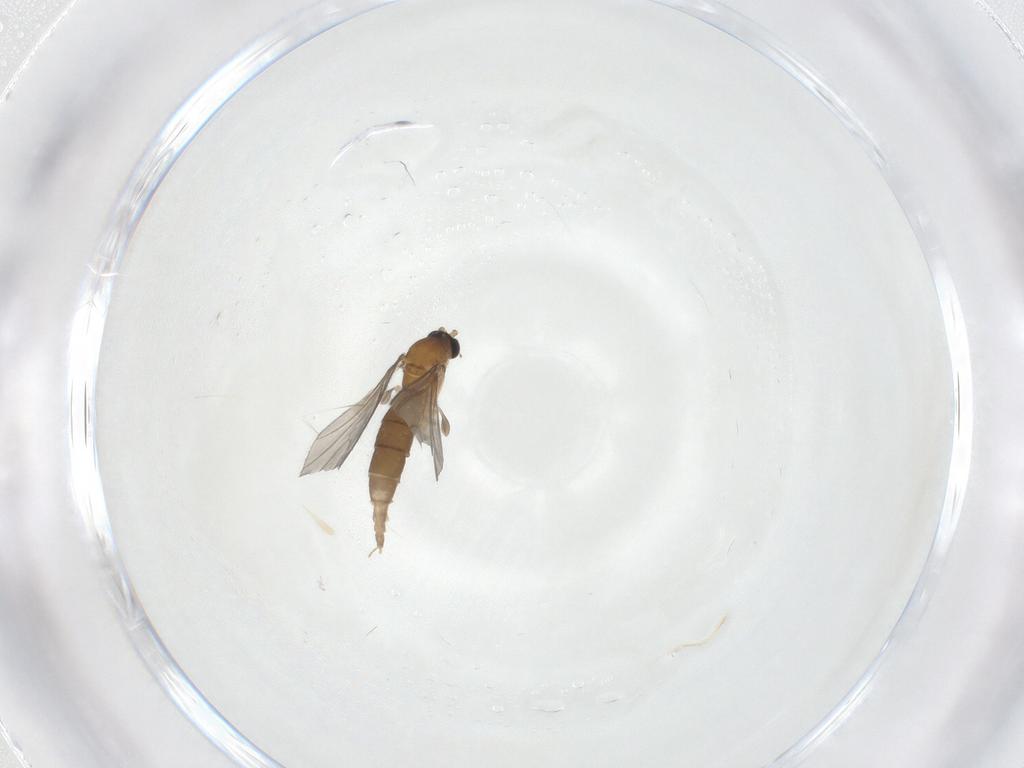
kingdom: Animalia
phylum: Arthropoda
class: Insecta
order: Diptera
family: Sciaridae
